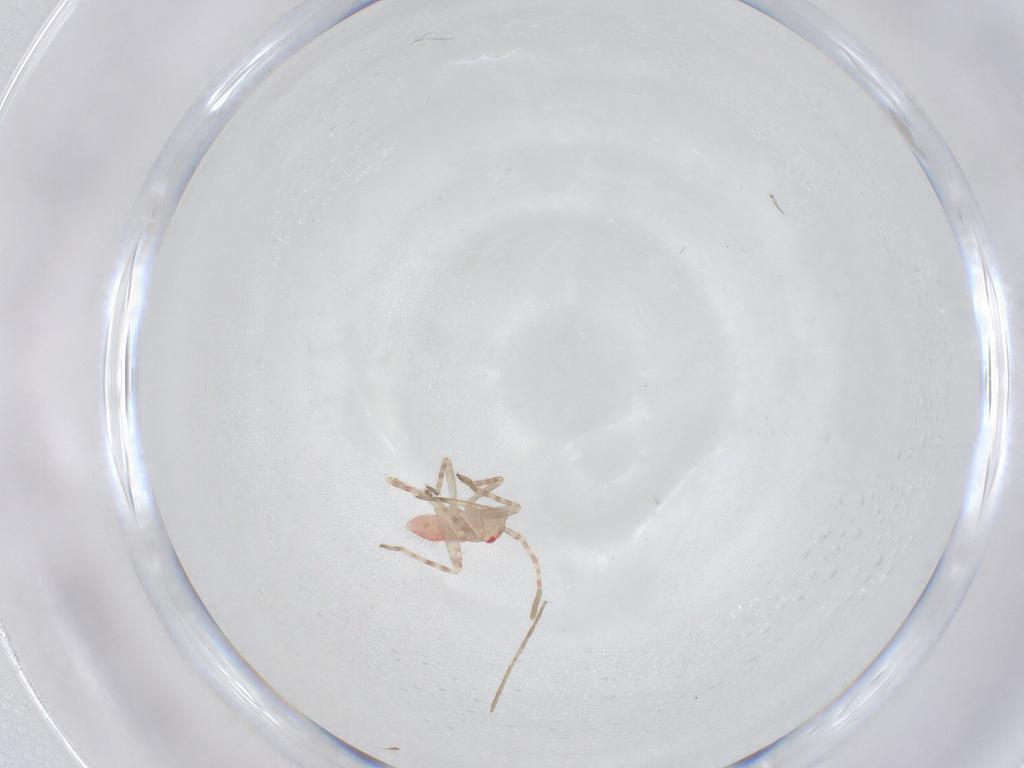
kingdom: Animalia
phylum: Arthropoda
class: Insecta
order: Hemiptera
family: Miridae
